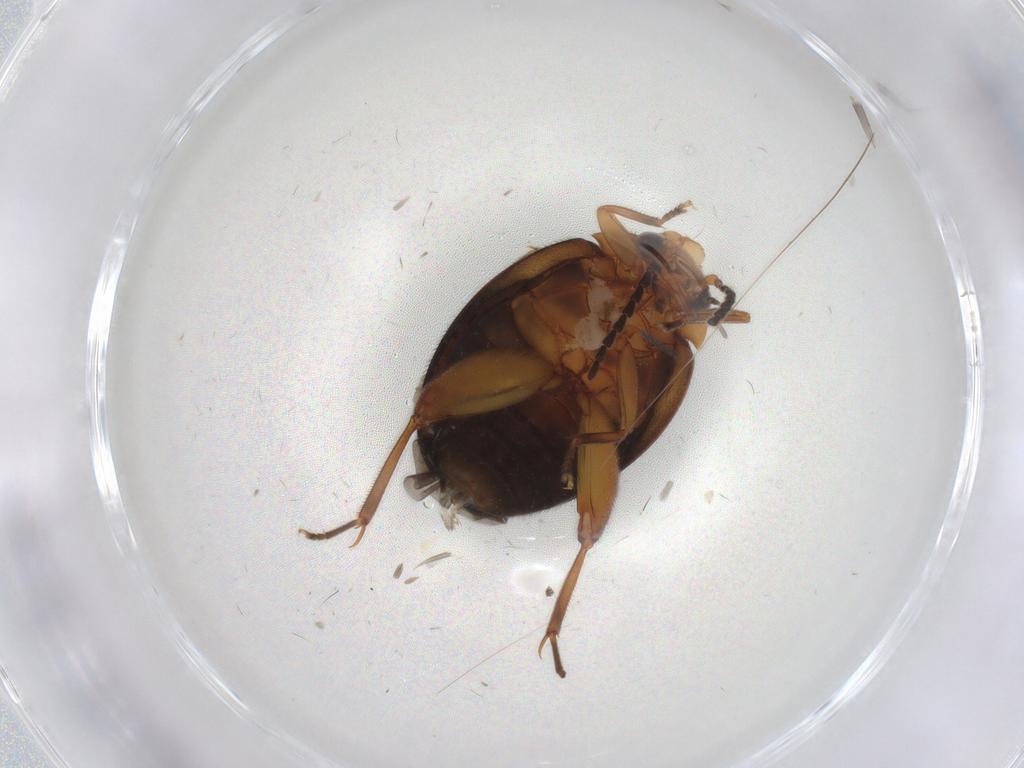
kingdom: Animalia
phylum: Arthropoda
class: Insecta
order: Coleoptera
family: Scirtidae
